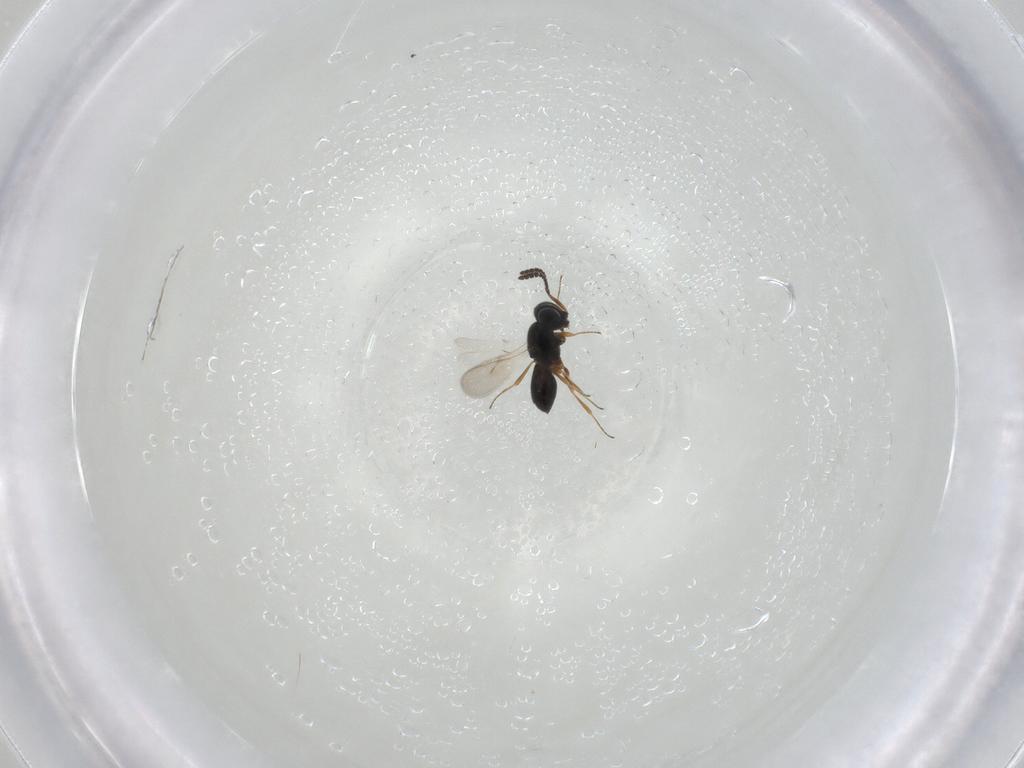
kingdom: Animalia
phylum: Arthropoda
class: Insecta
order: Hymenoptera
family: Scelionidae
